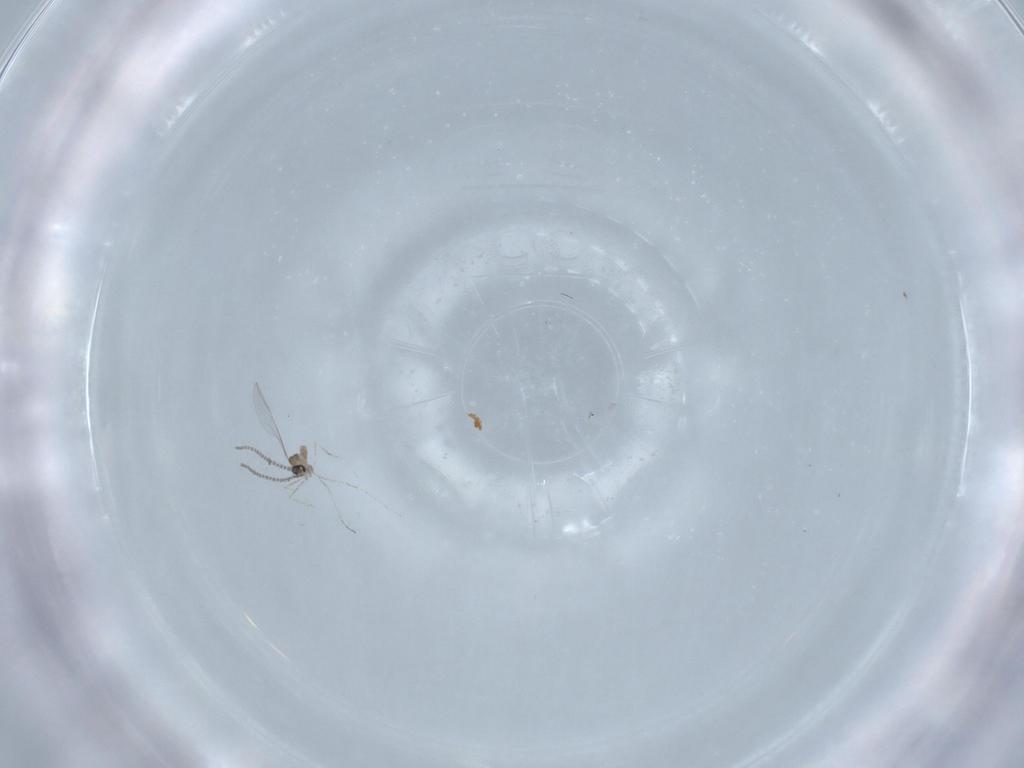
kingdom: Animalia
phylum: Arthropoda
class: Insecta
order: Diptera
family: Cecidomyiidae
